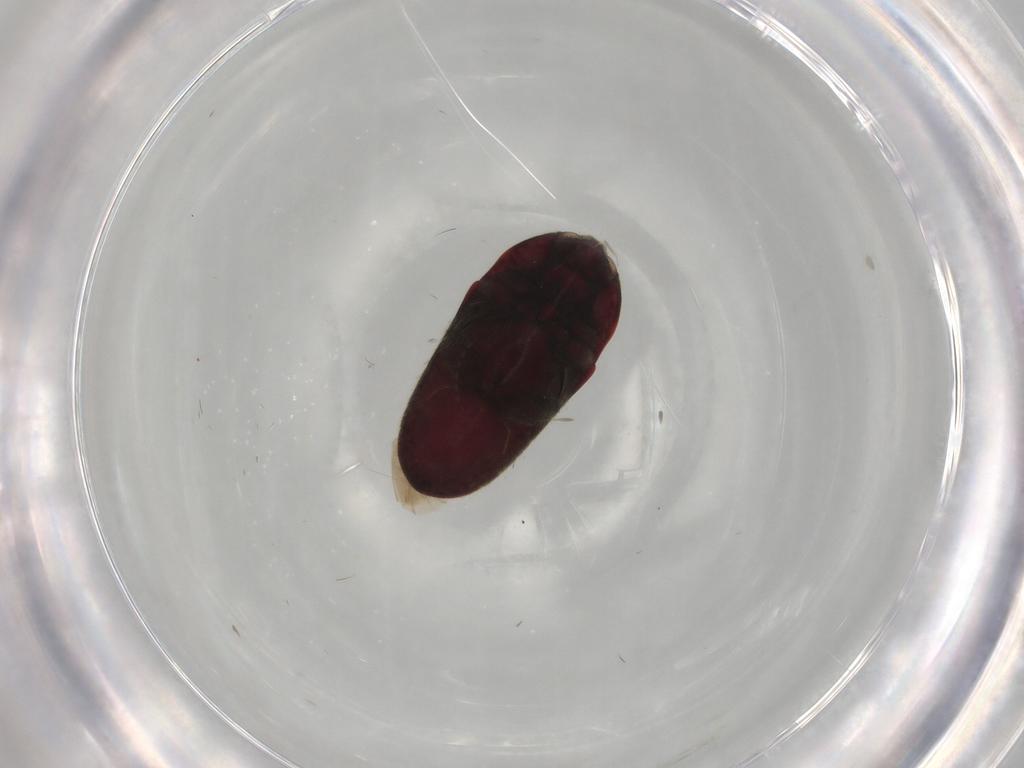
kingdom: Animalia
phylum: Arthropoda
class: Insecta
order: Coleoptera
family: Throscidae
